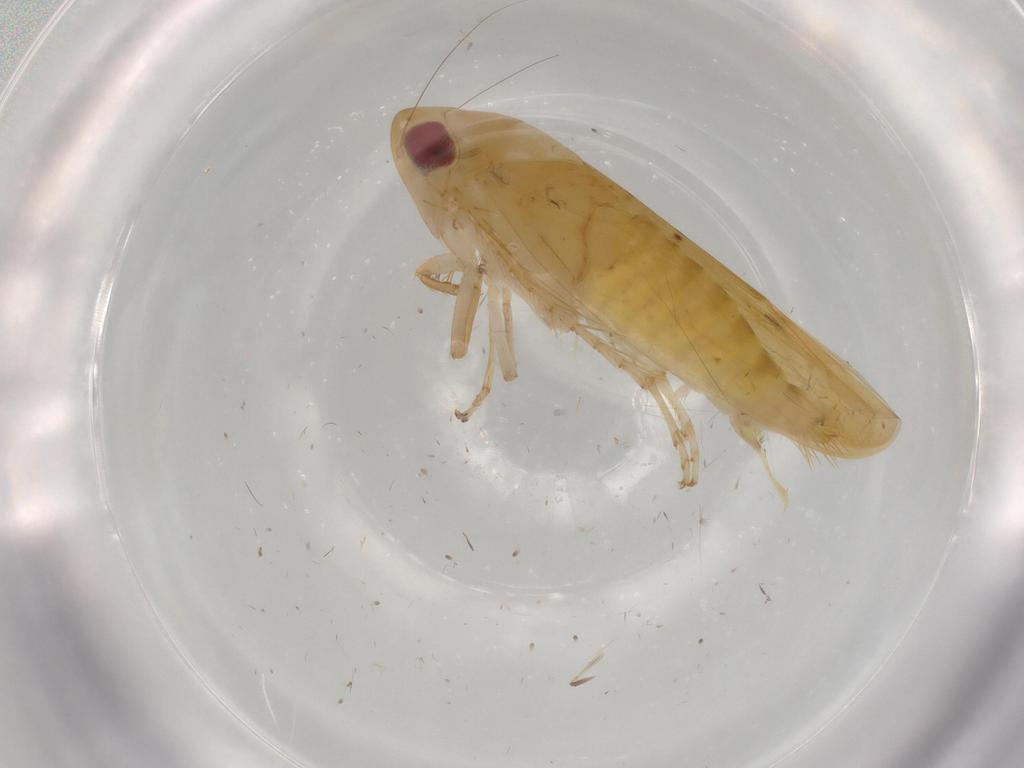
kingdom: Animalia
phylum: Arthropoda
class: Insecta
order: Hemiptera
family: Cicadellidae
